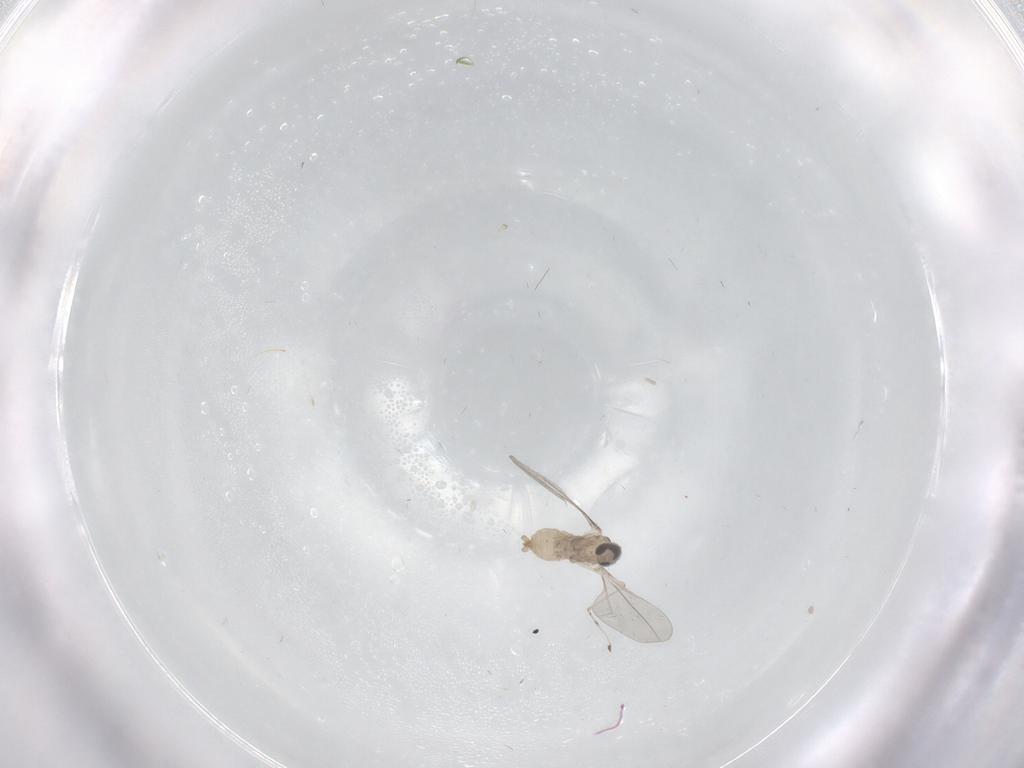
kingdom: Animalia
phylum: Arthropoda
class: Insecta
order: Diptera
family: Cecidomyiidae
